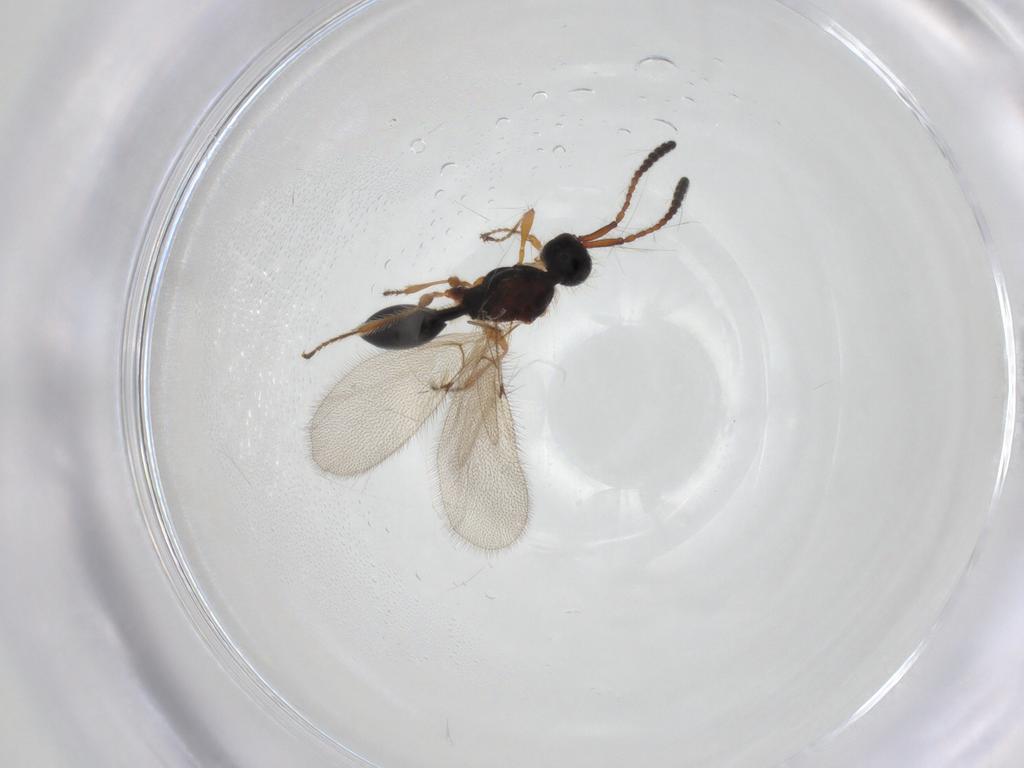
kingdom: Animalia
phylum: Arthropoda
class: Insecta
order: Hymenoptera
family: Diapriidae
